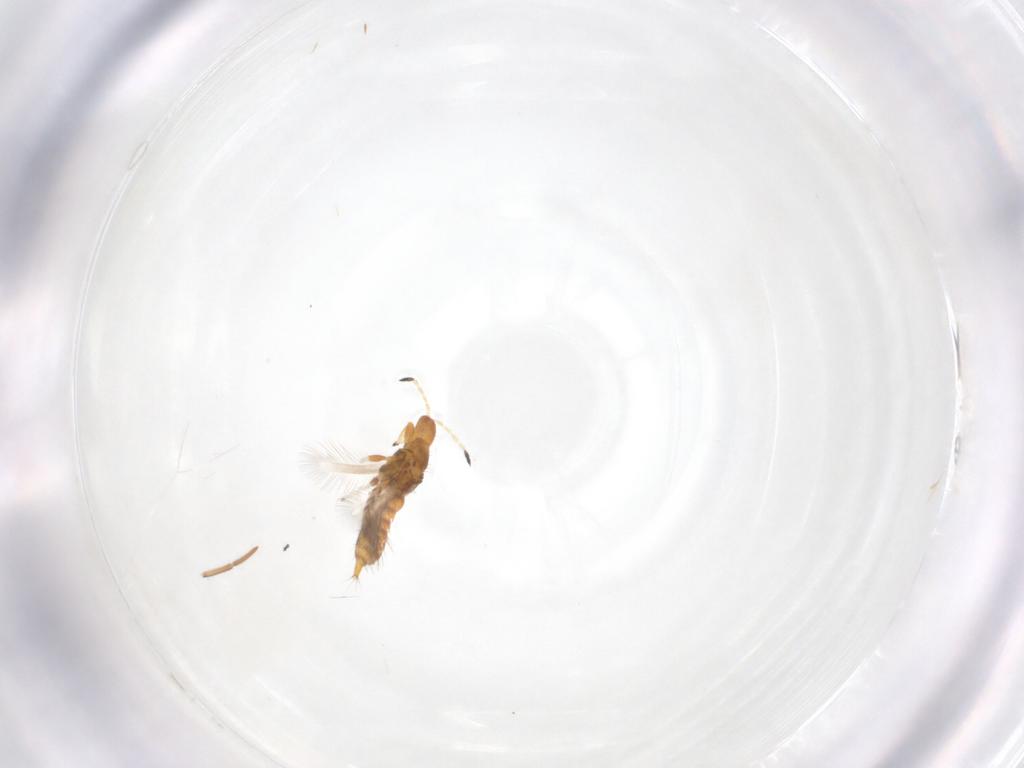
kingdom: Animalia
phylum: Arthropoda
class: Insecta
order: Thysanoptera
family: Phlaeothripidae
